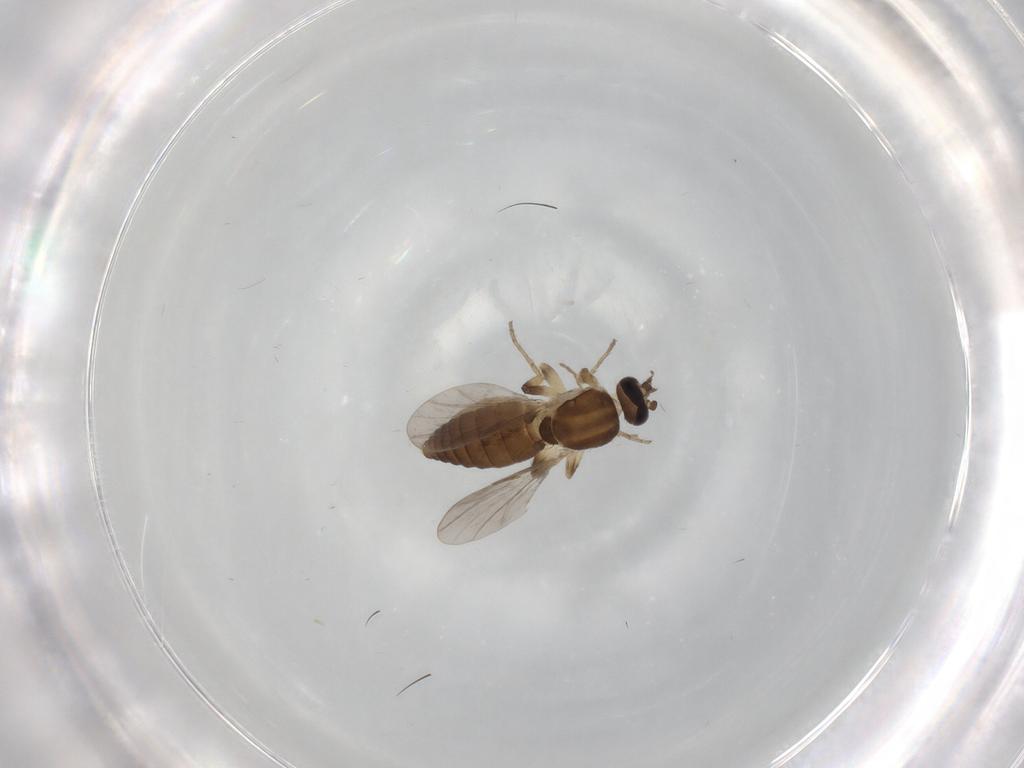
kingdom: Animalia
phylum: Arthropoda
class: Insecta
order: Diptera
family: Ceratopogonidae
